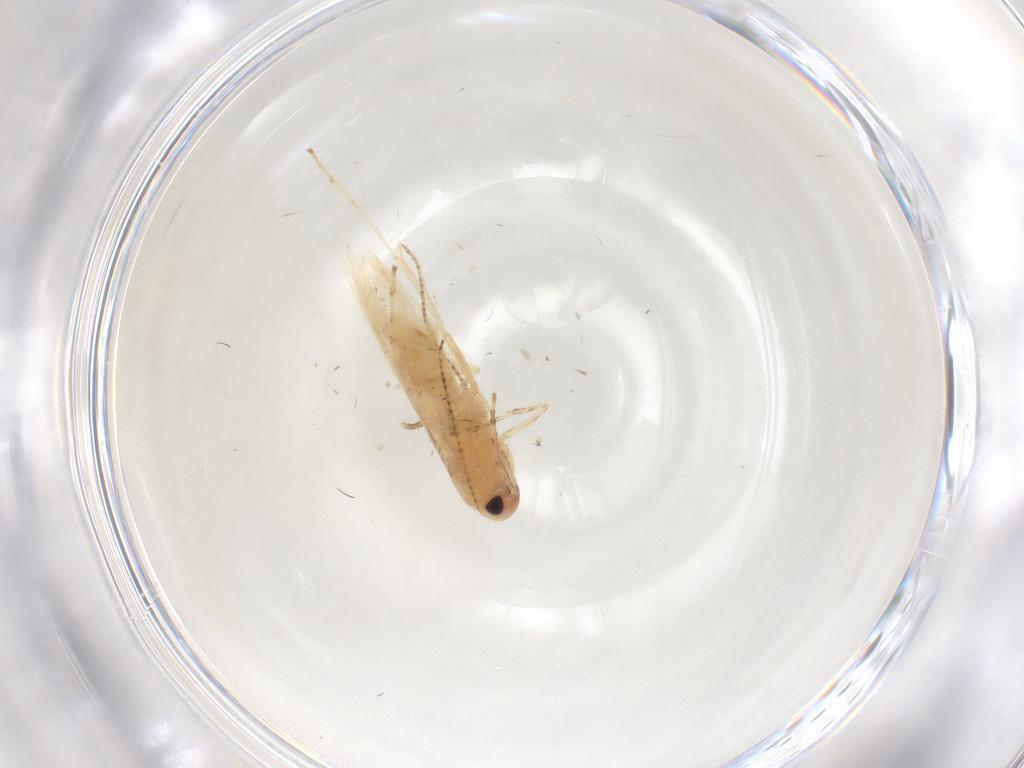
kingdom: Animalia
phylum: Arthropoda
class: Insecta
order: Lepidoptera
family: Gracillariidae
